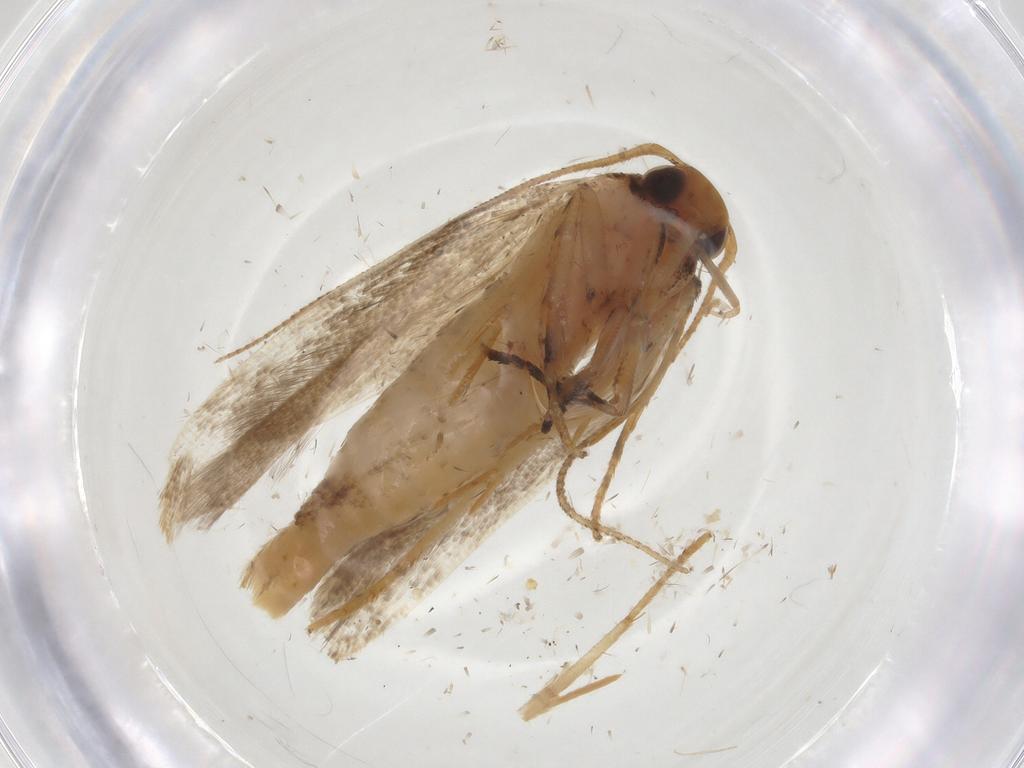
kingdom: Animalia
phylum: Arthropoda
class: Insecta
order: Lepidoptera
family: Gelechiidae
